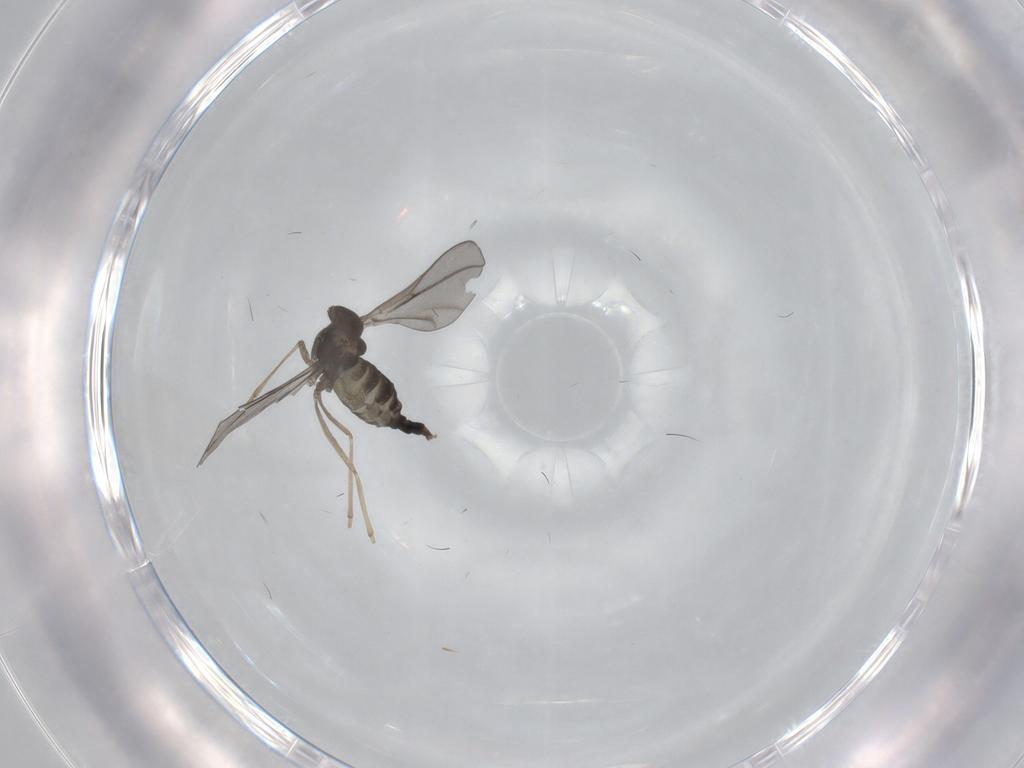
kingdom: Animalia
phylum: Arthropoda
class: Insecta
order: Diptera
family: Cecidomyiidae
